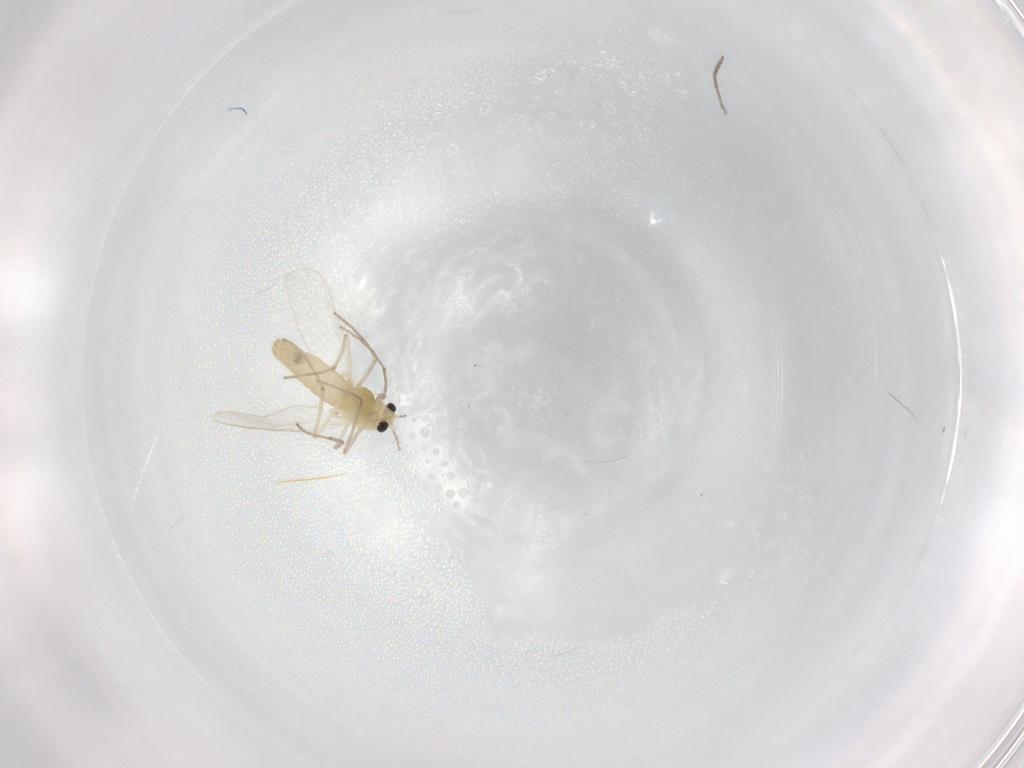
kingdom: Animalia
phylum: Arthropoda
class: Insecta
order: Diptera
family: Chironomidae
